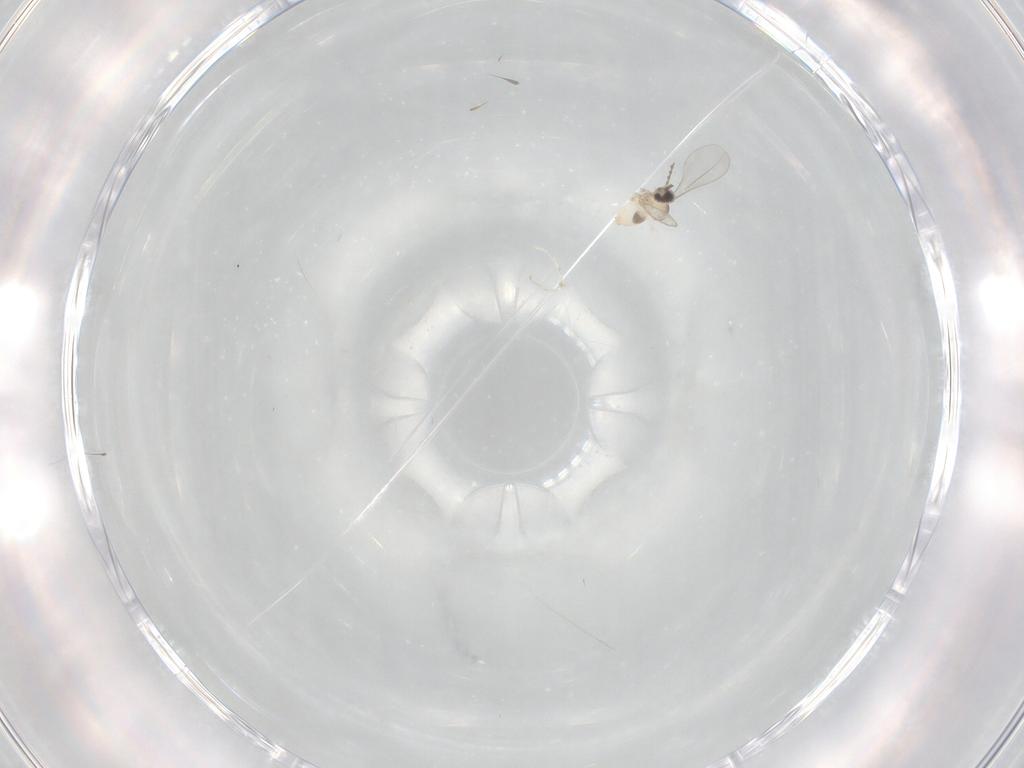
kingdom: Animalia
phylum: Arthropoda
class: Insecta
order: Diptera
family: Cecidomyiidae
